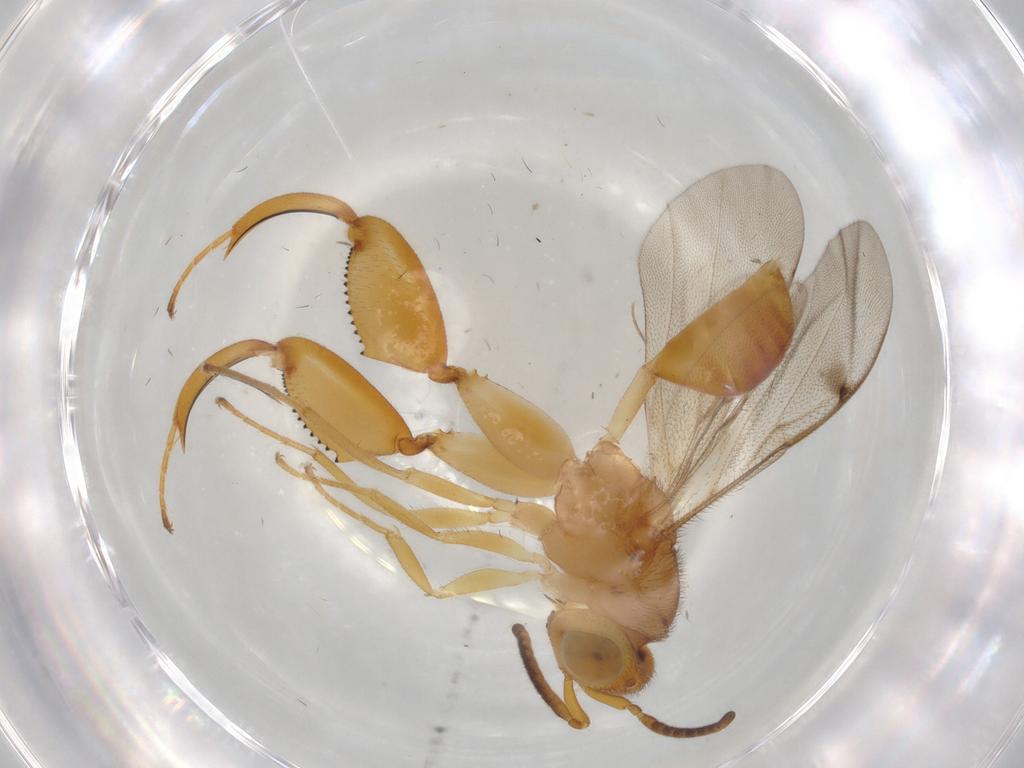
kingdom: Animalia
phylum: Arthropoda
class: Insecta
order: Hymenoptera
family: Chalcididae
